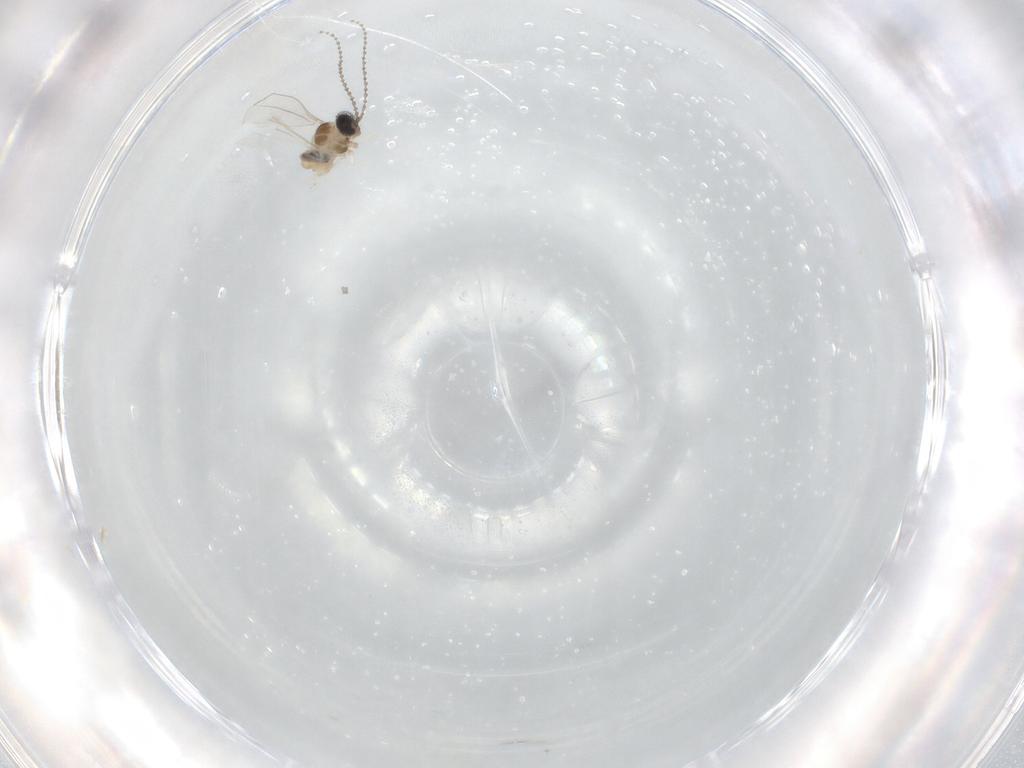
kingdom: Animalia
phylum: Arthropoda
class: Insecta
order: Diptera
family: Cecidomyiidae
